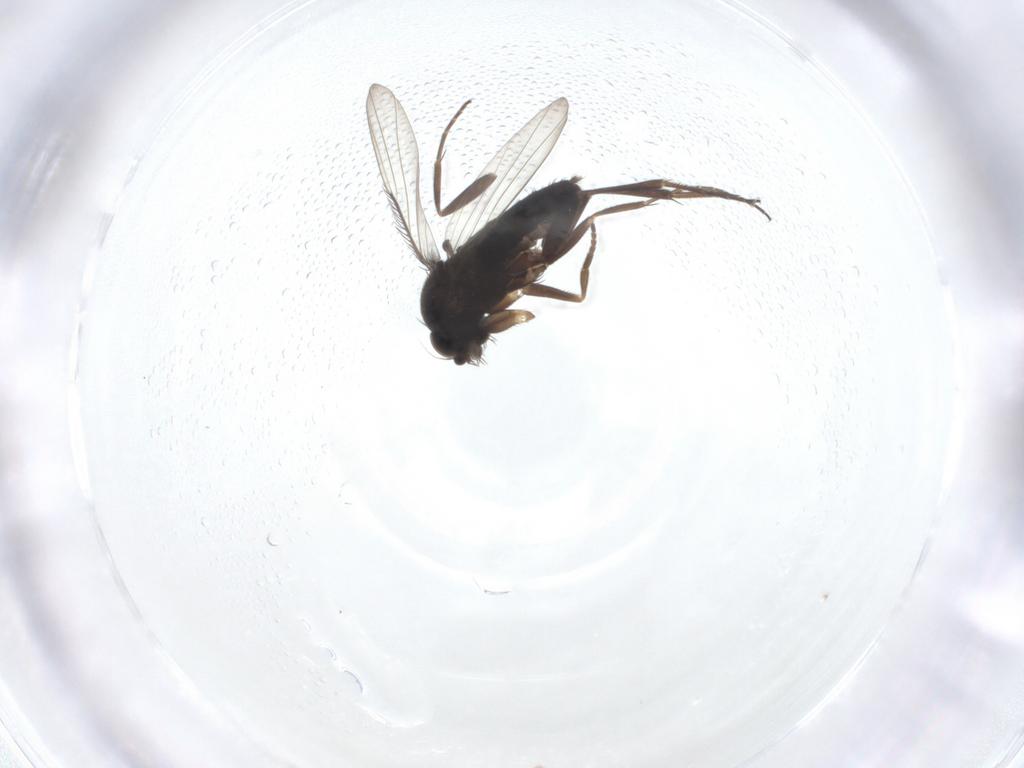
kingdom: Animalia
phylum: Arthropoda
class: Insecta
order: Diptera
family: Phoridae
